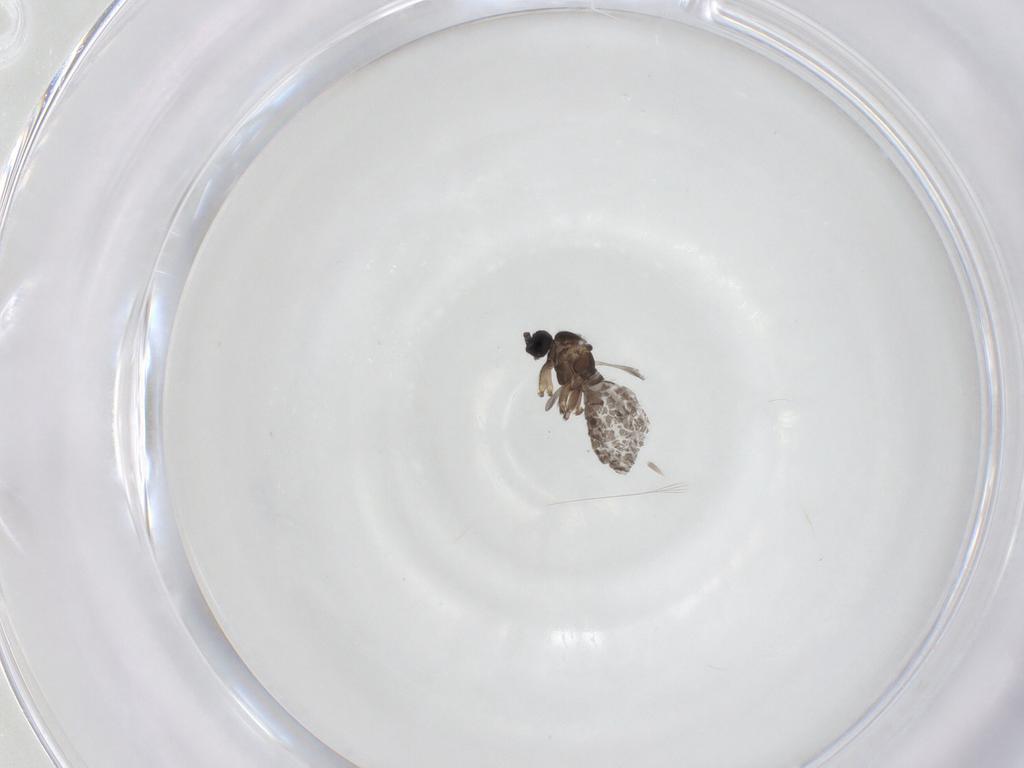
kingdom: Animalia
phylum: Arthropoda
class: Insecta
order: Diptera
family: Sciaridae
